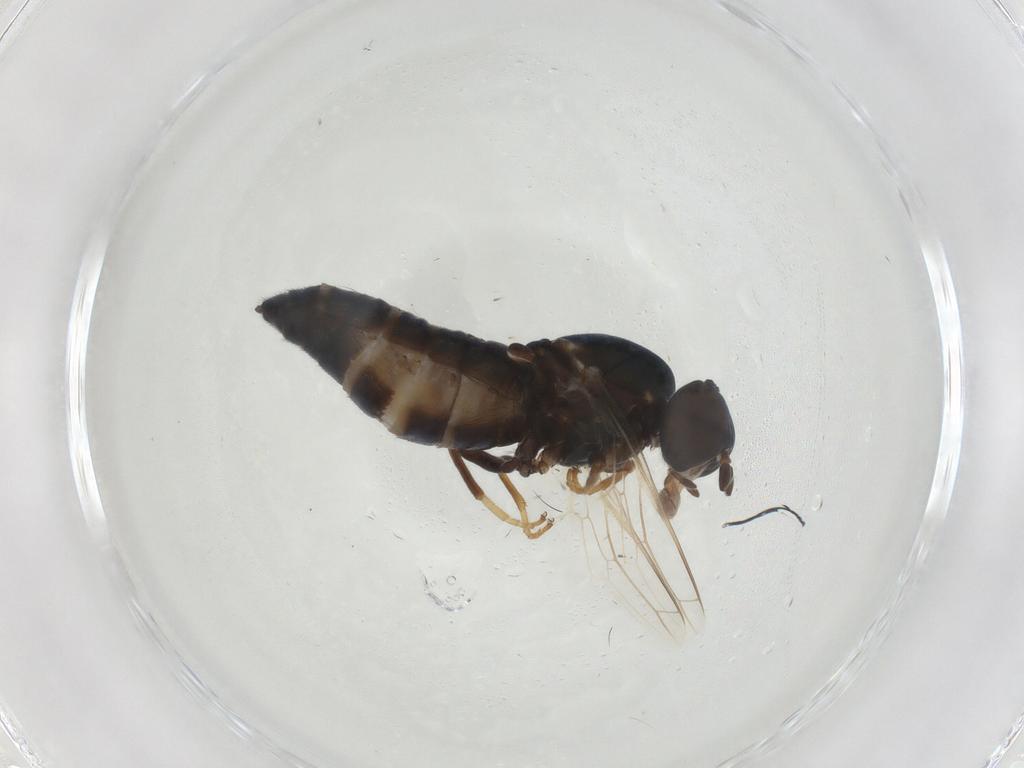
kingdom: Animalia
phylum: Arthropoda
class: Insecta
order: Diptera
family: Scenopinidae
